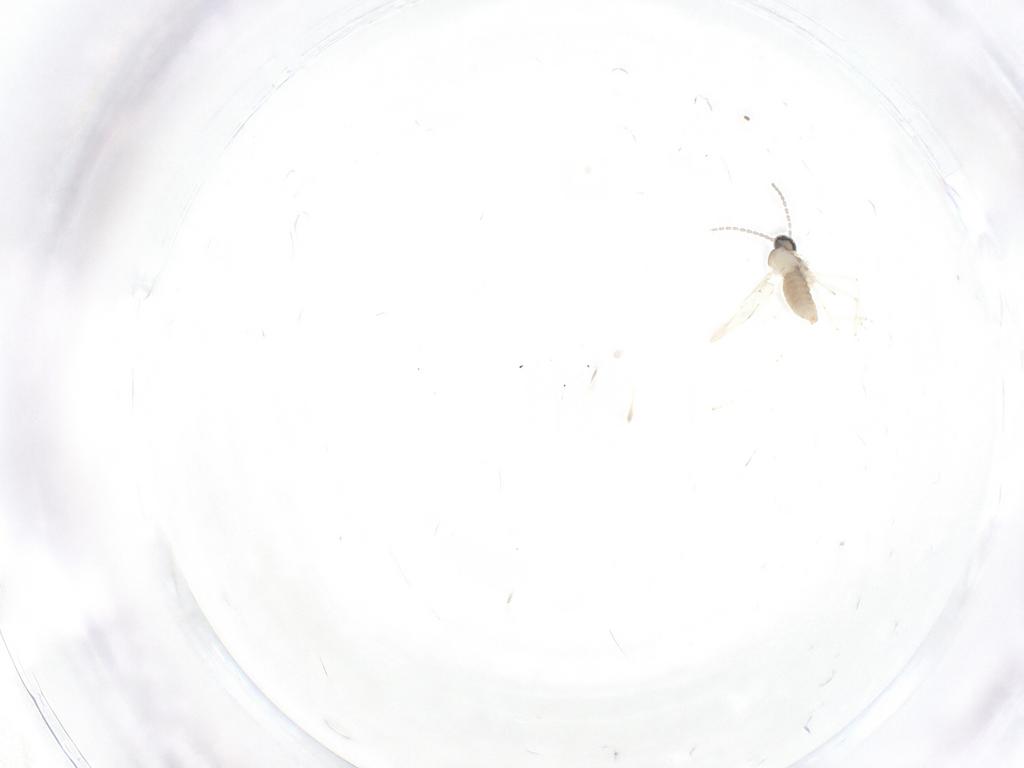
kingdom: Animalia
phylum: Arthropoda
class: Insecta
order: Diptera
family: Cecidomyiidae
